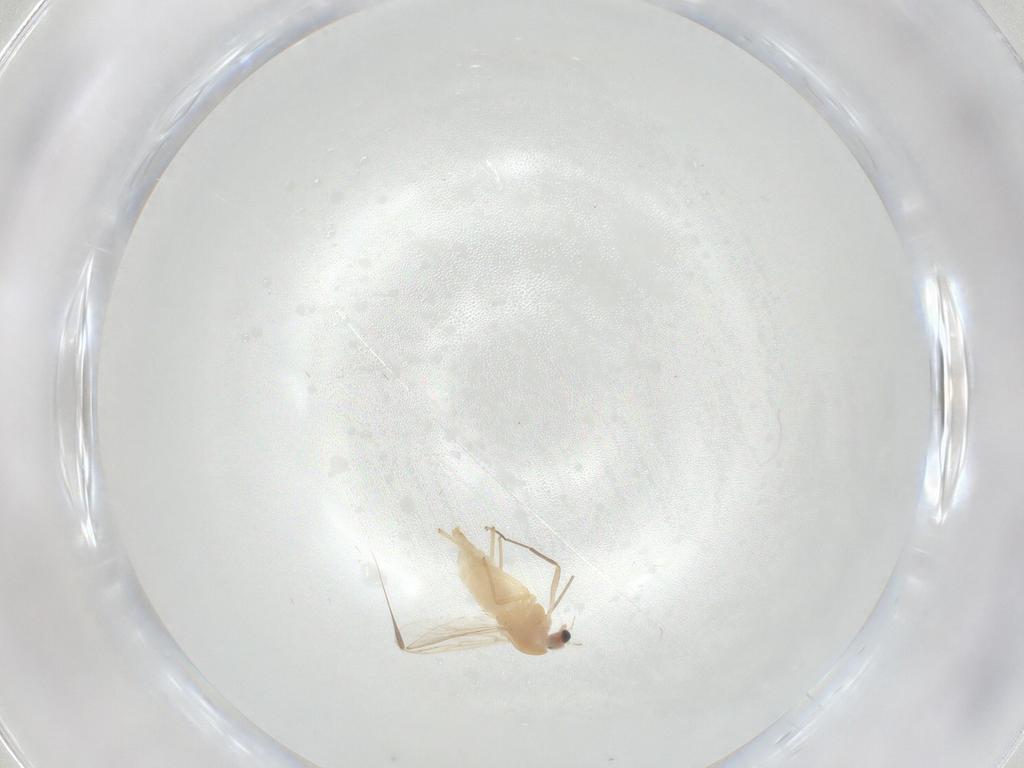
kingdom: Animalia
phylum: Arthropoda
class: Insecta
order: Diptera
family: Chironomidae
